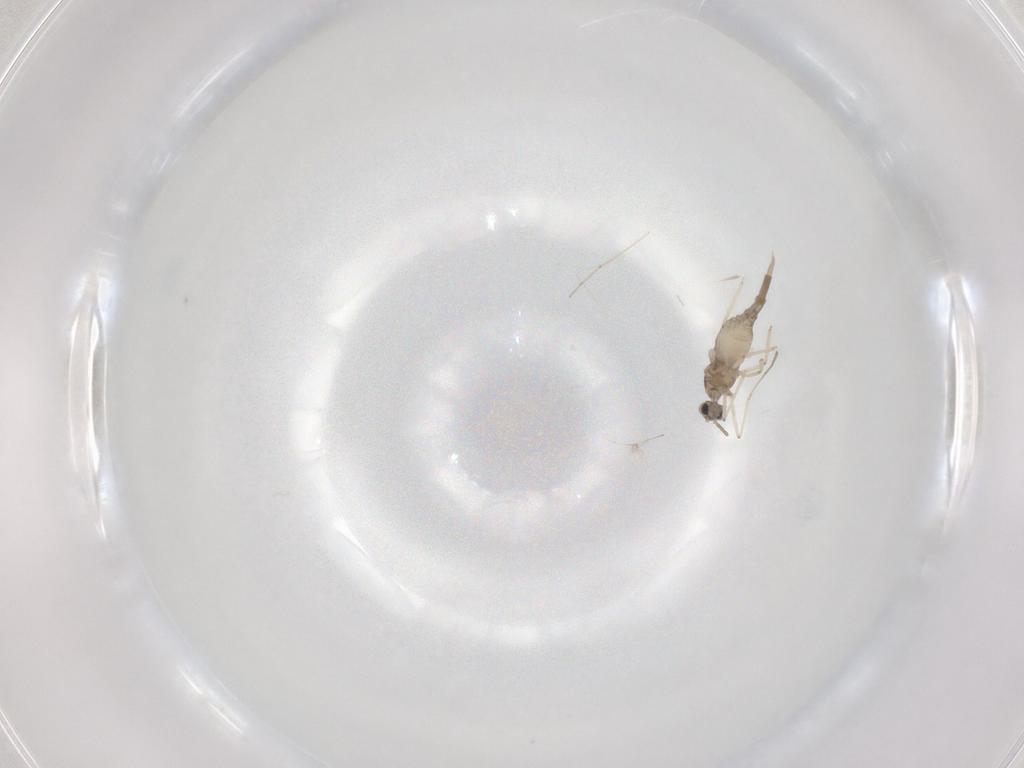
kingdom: Animalia
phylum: Arthropoda
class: Insecta
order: Diptera
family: Cecidomyiidae
